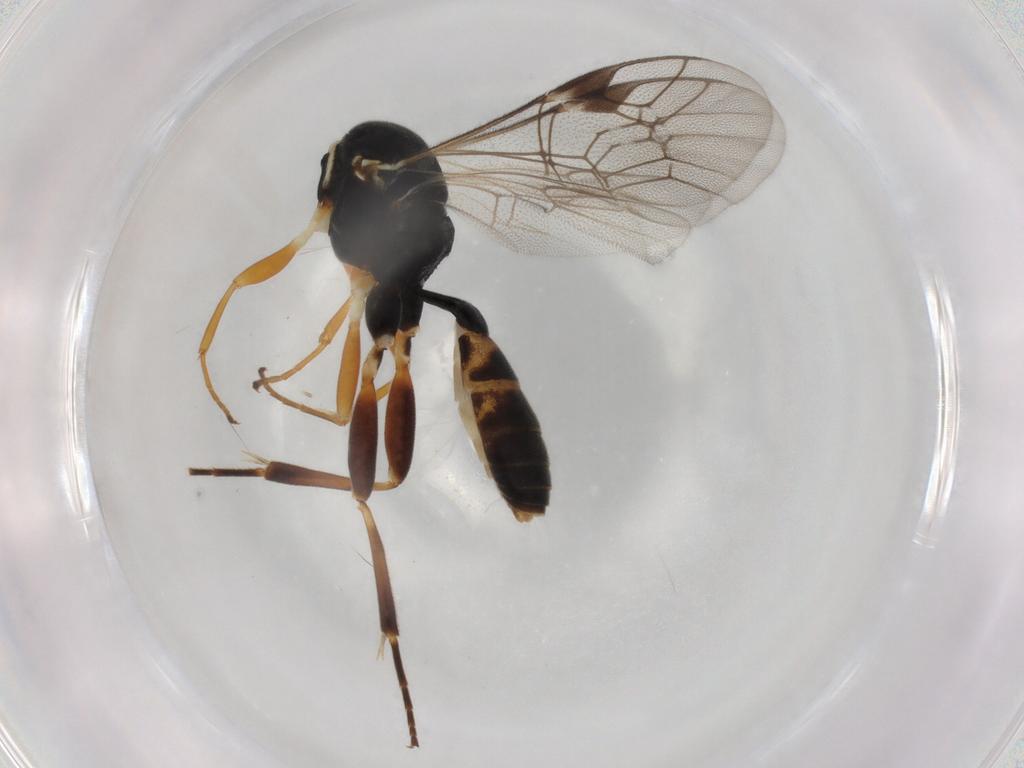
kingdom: Animalia
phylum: Arthropoda
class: Insecta
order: Hymenoptera
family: Ichneumonidae
